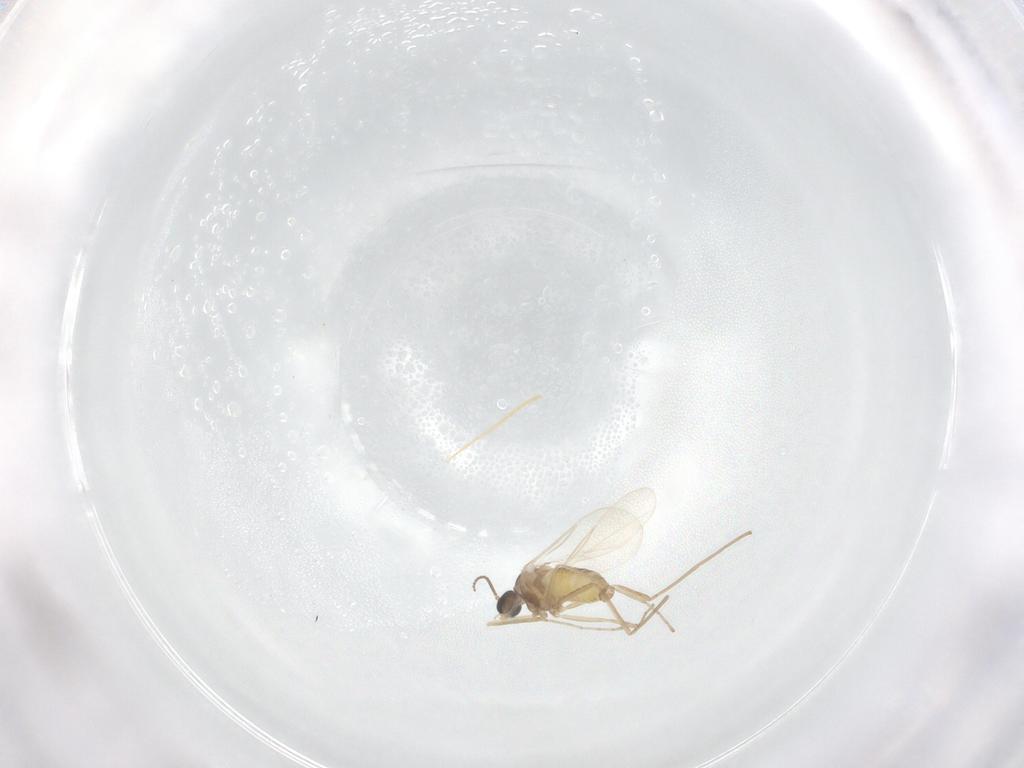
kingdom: Animalia
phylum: Arthropoda
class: Insecta
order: Diptera
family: Cecidomyiidae
